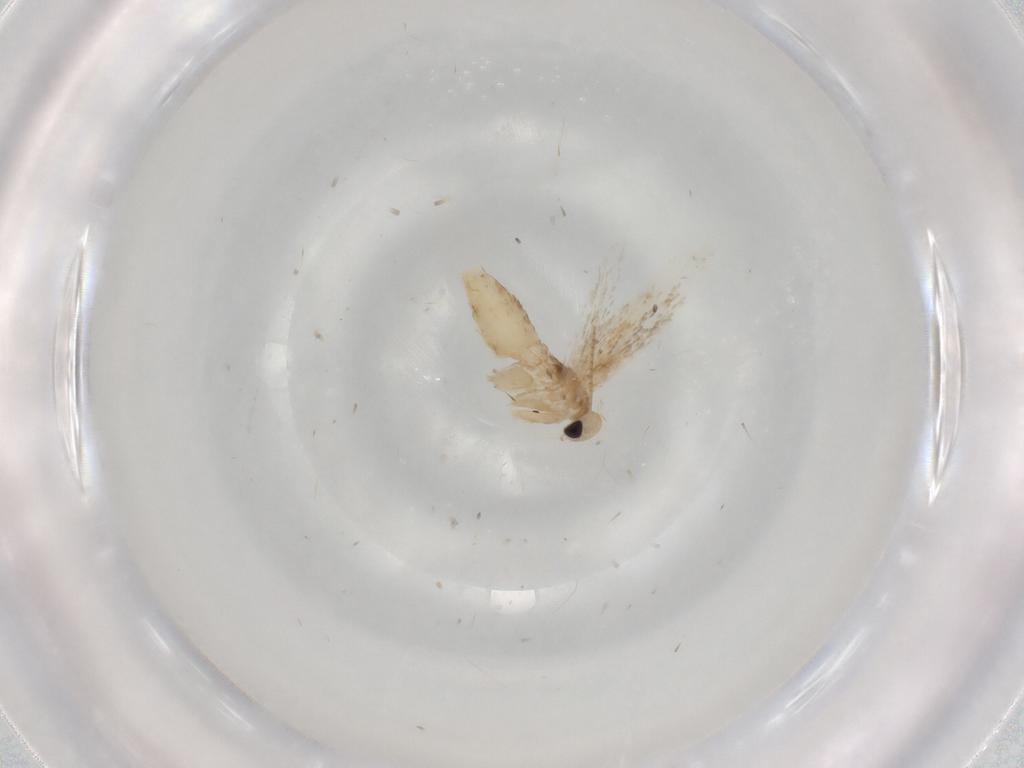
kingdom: Animalia
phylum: Arthropoda
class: Insecta
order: Lepidoptera
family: Gracillariidae
